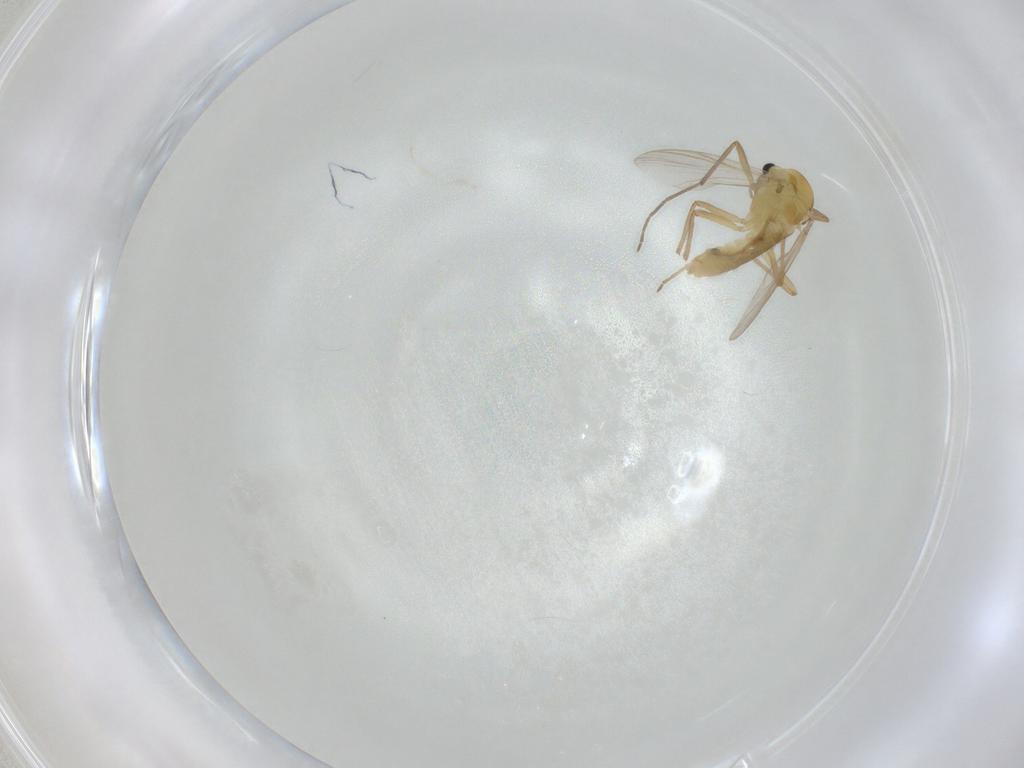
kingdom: Animalia
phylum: Arthropoda
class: Insecta
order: Diptera
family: Chironomidae
